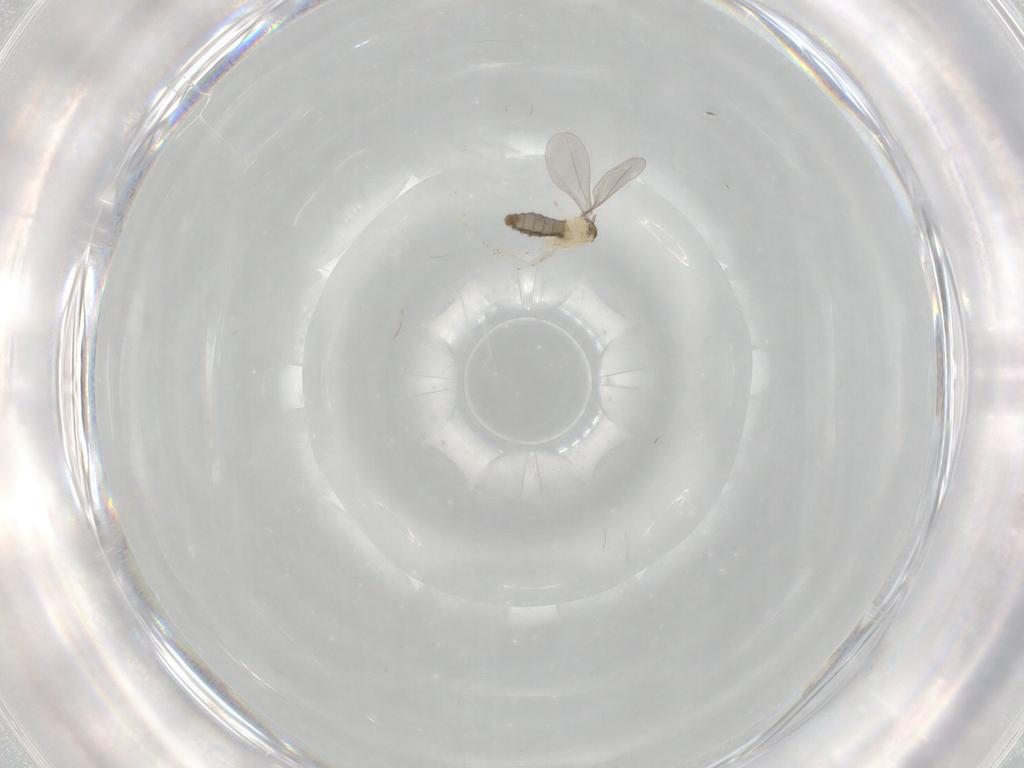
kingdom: Animalia
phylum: Arthropoda
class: Insecta
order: Diptera
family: Cecidomyiidae
